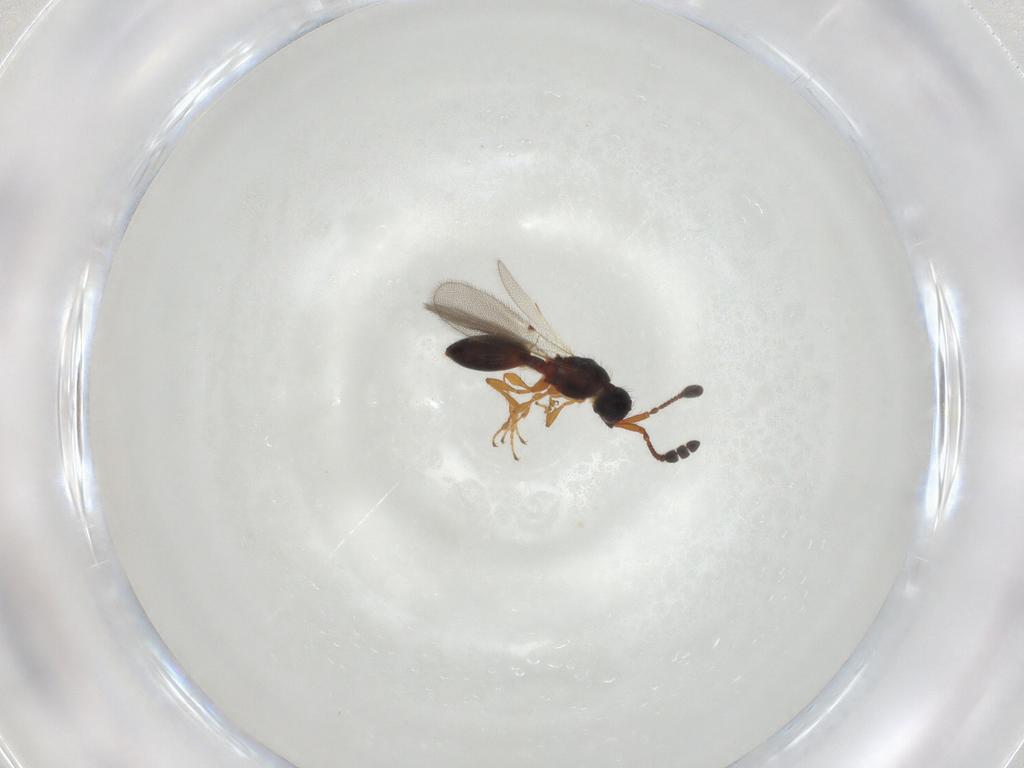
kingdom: Animalia
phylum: Arthropoda
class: Insecta
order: Hymenoptera
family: Diapriidae
